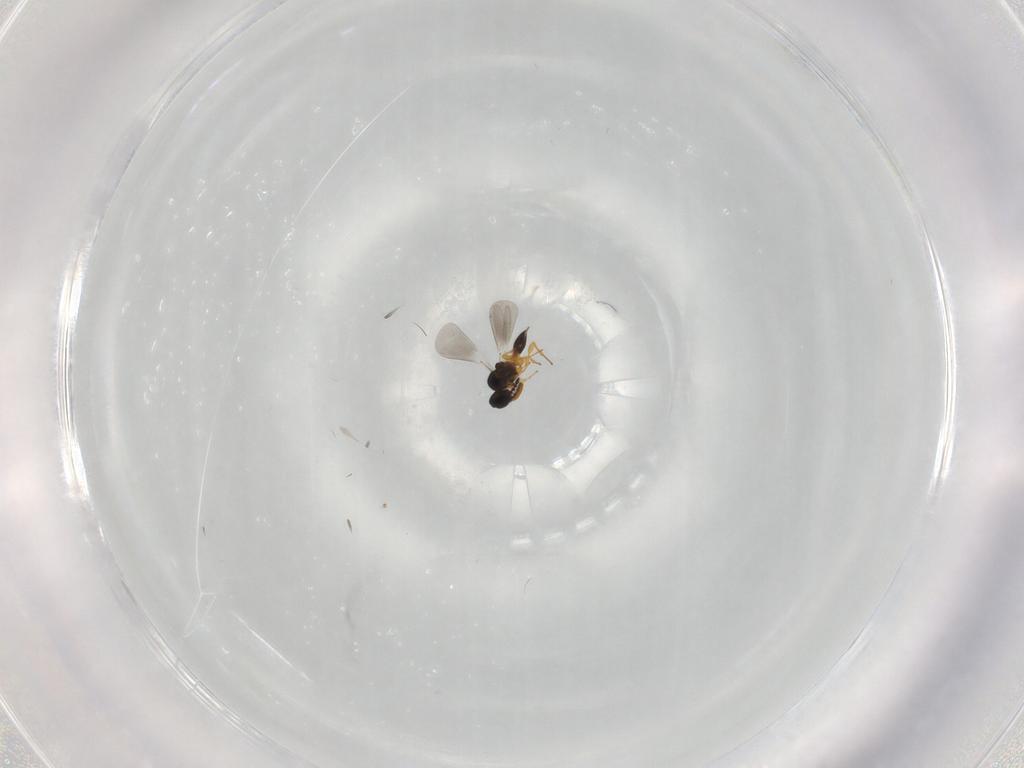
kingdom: Animalia
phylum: Arthropoda
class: Insecta
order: Hymenoptera
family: Platygastridae
